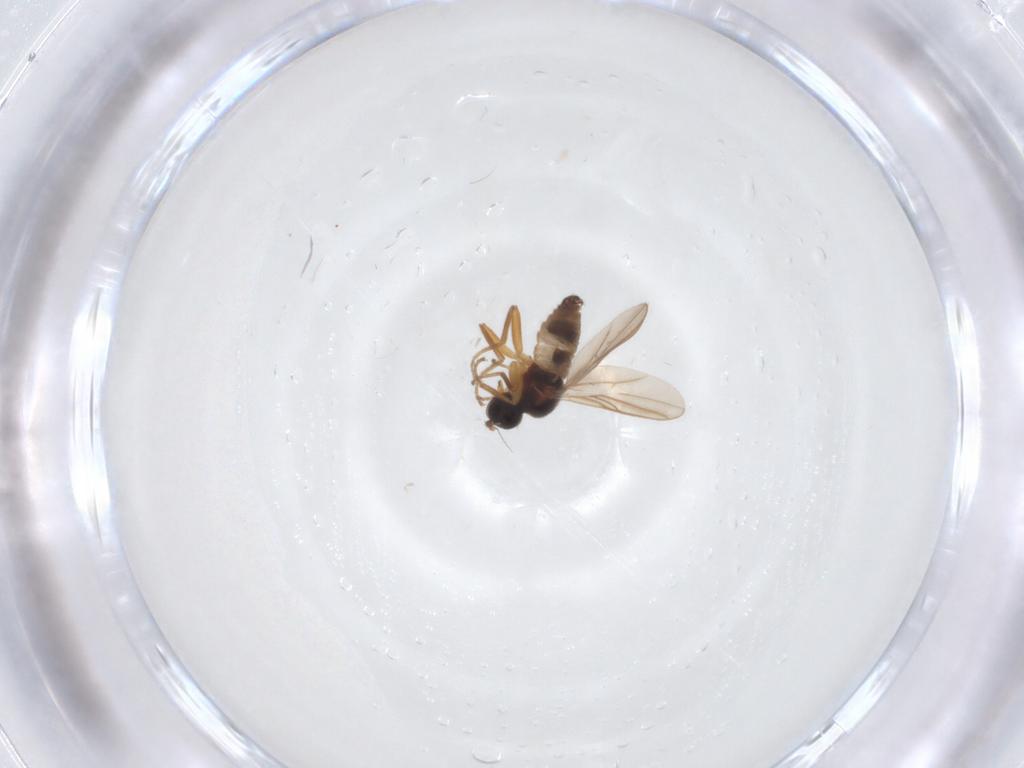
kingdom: Animalia
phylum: Arthropoda
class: Insecta
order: Diptera
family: Hybotidae
